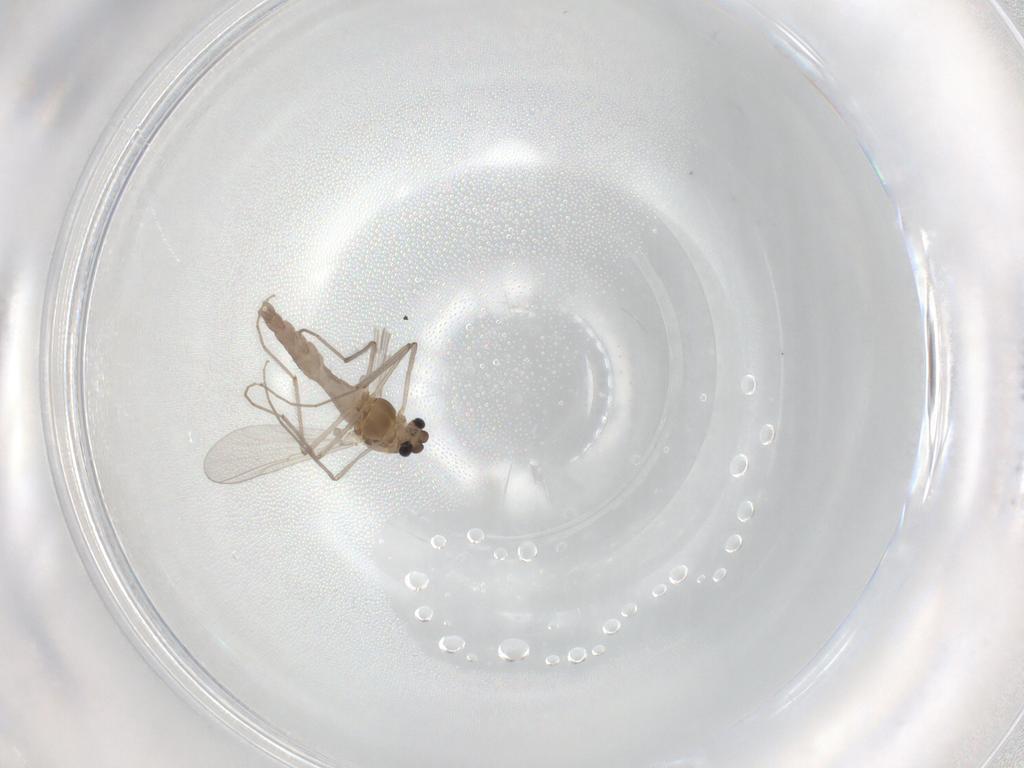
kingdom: Animalia
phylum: Arthropoda
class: Insecta
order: Diptera
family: Chironomidae
